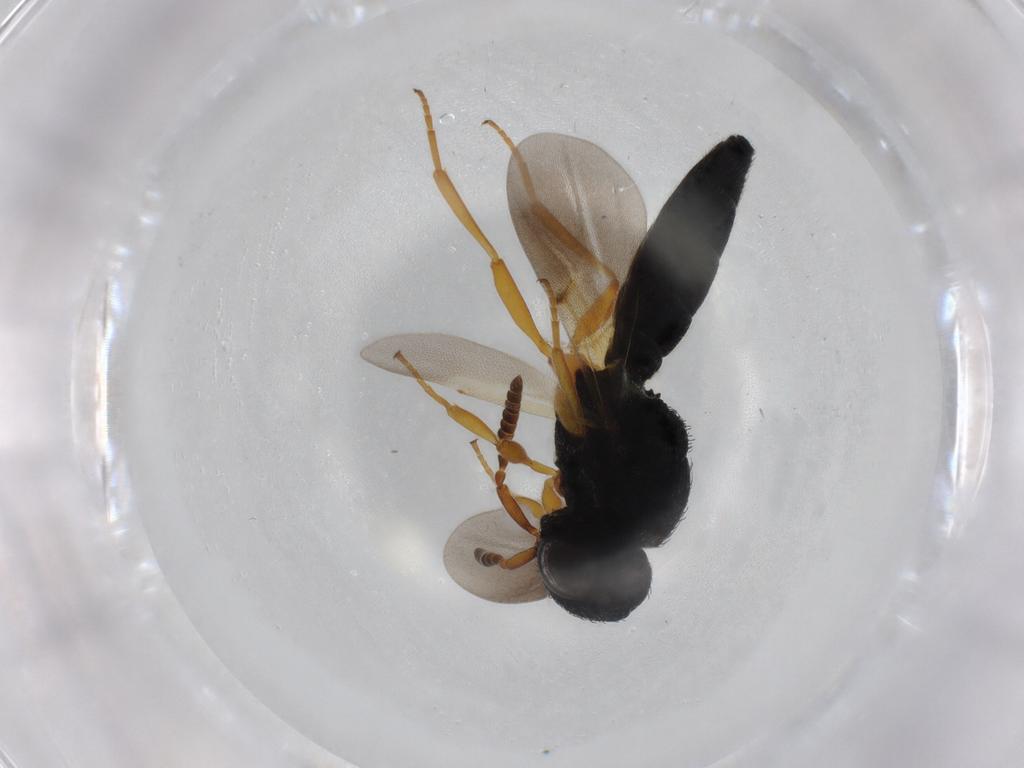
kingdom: Animalia
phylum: Arthropoda
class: Insecta
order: Hymenoptera
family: Scelionidae
